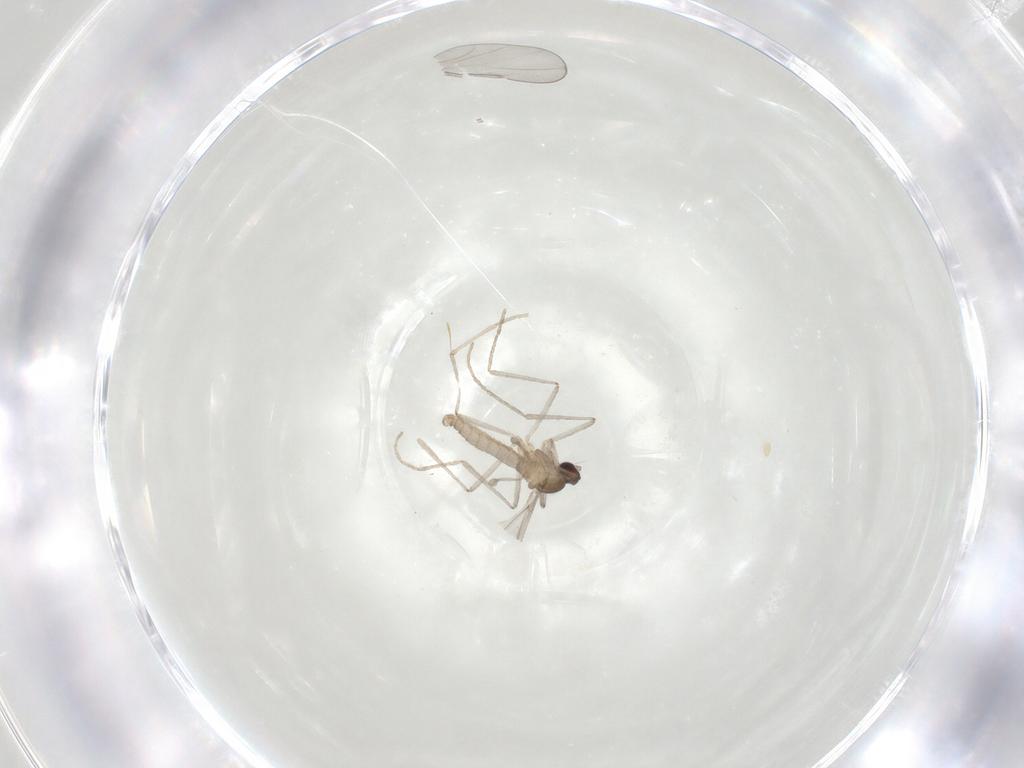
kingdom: Animalia
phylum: Arthropoda
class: Insecta
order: Diptera
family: Cecidomyiidae
